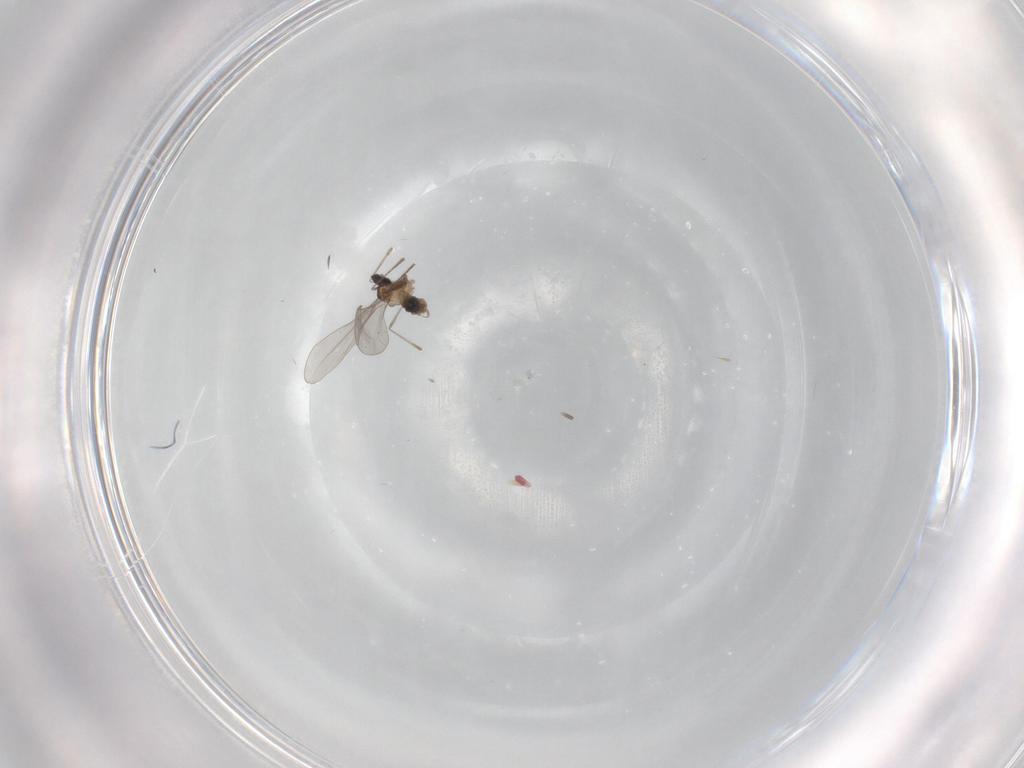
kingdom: Animalia
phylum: Arthropoda
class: Insecta
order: Diptera
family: Cecidomyiidae
